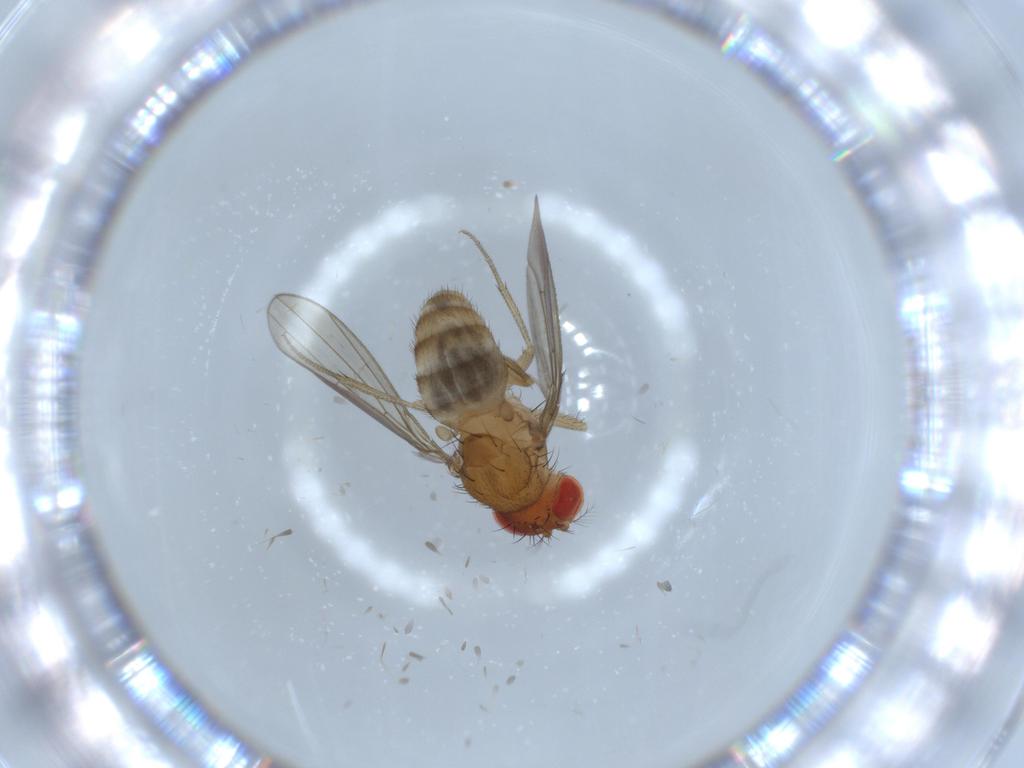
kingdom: Animalia
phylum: Arthropoda
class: Insecta
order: Diptera
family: Drosophilidae
